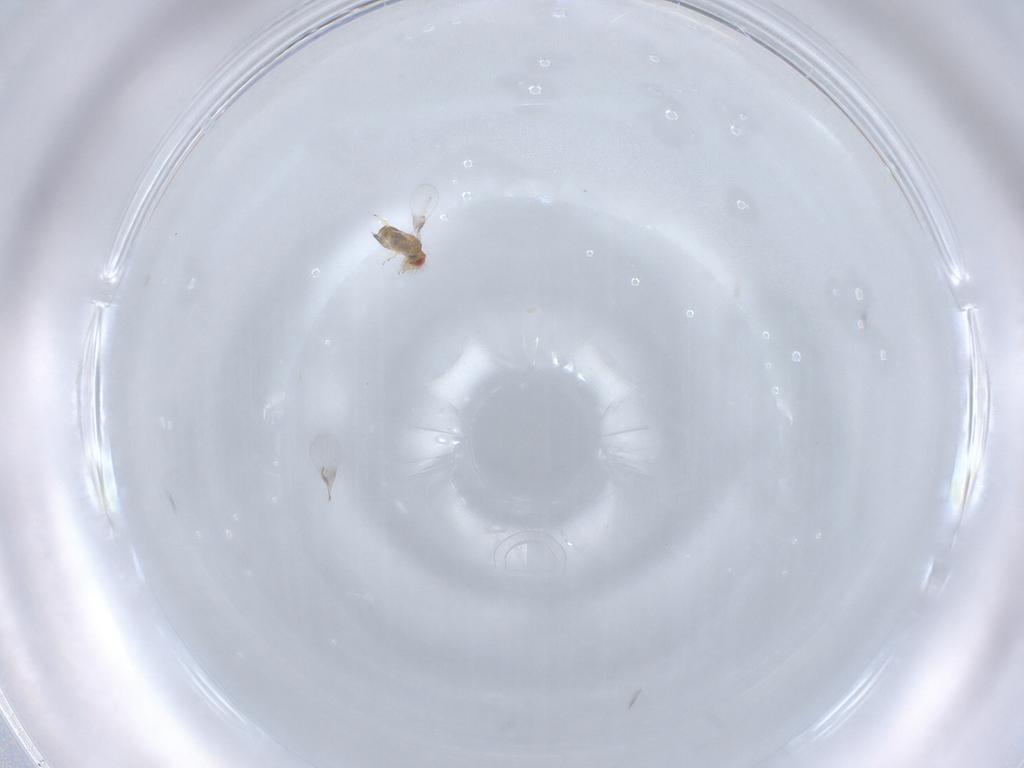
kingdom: Animalia
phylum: Arthropoda
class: Insecta
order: Hymenoptera
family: Trichogrammatidae
